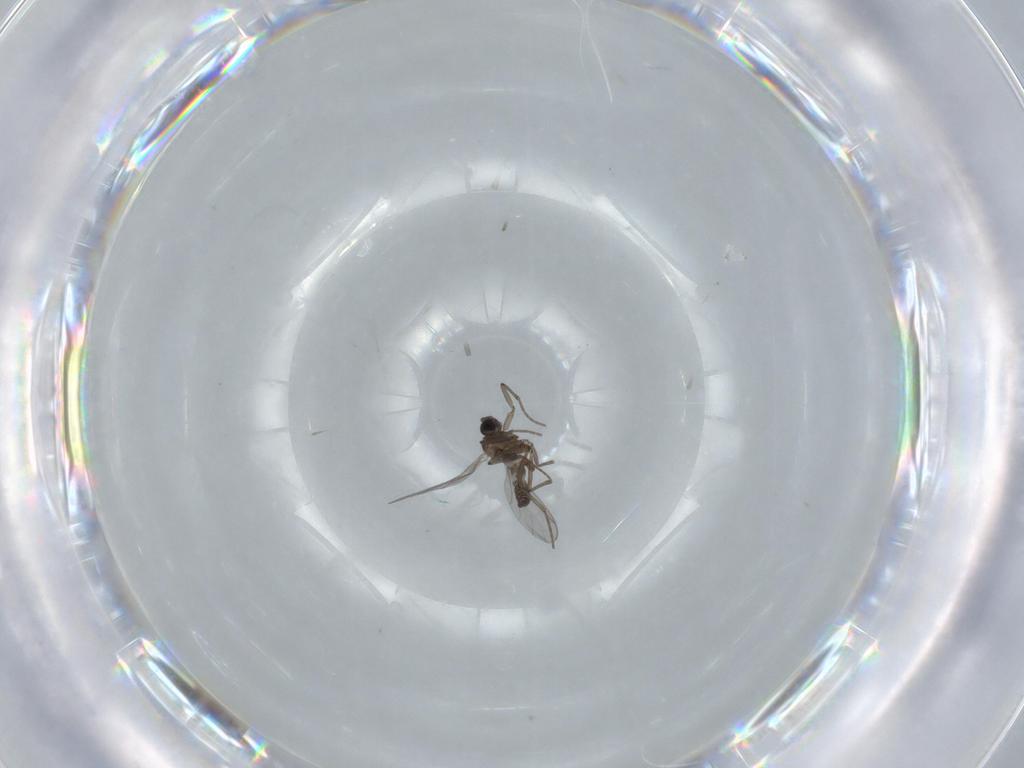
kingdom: Animalia
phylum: Arthropoda
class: Insecta
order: Diptera
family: Sciaridae
